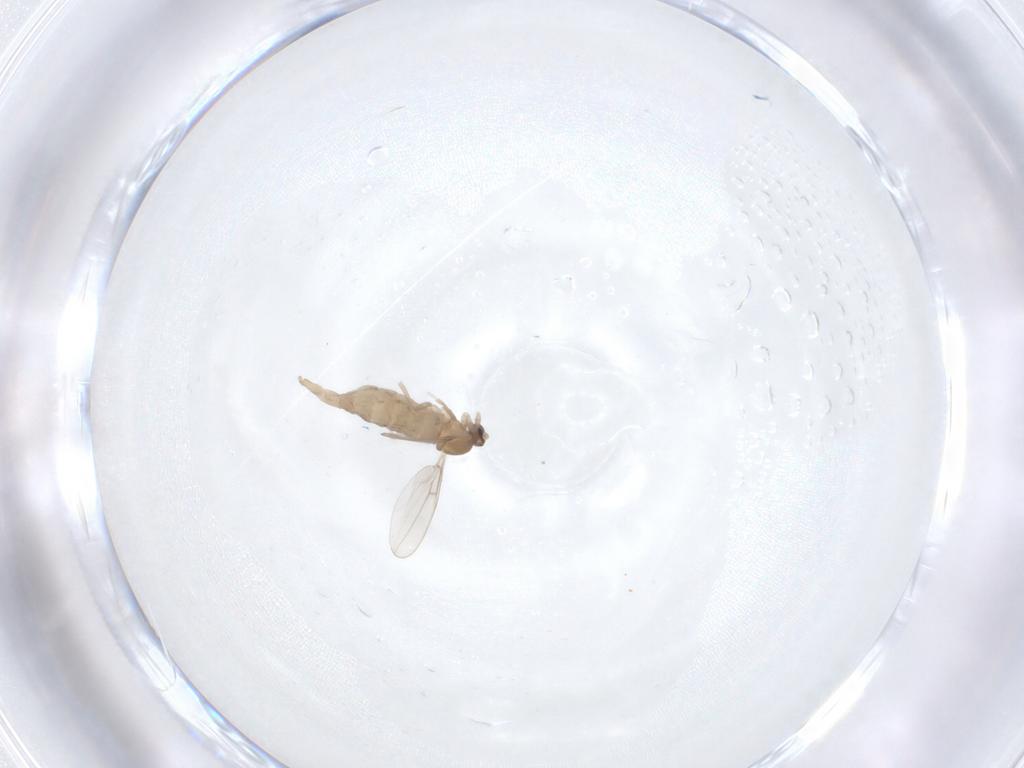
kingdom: Animalia
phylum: Arthropoda
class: Insecta
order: Diptera
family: Cecidomyiidae
